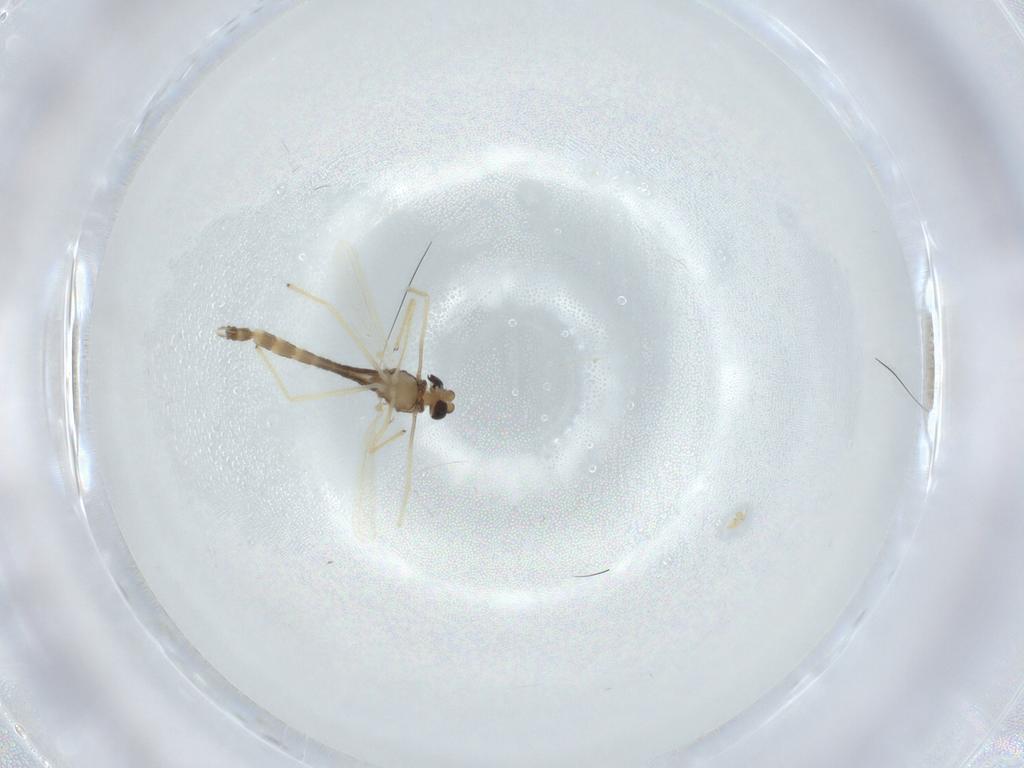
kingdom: Animalia
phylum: Arthropoda
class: Insecta
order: Diptera
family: Chironomidae
